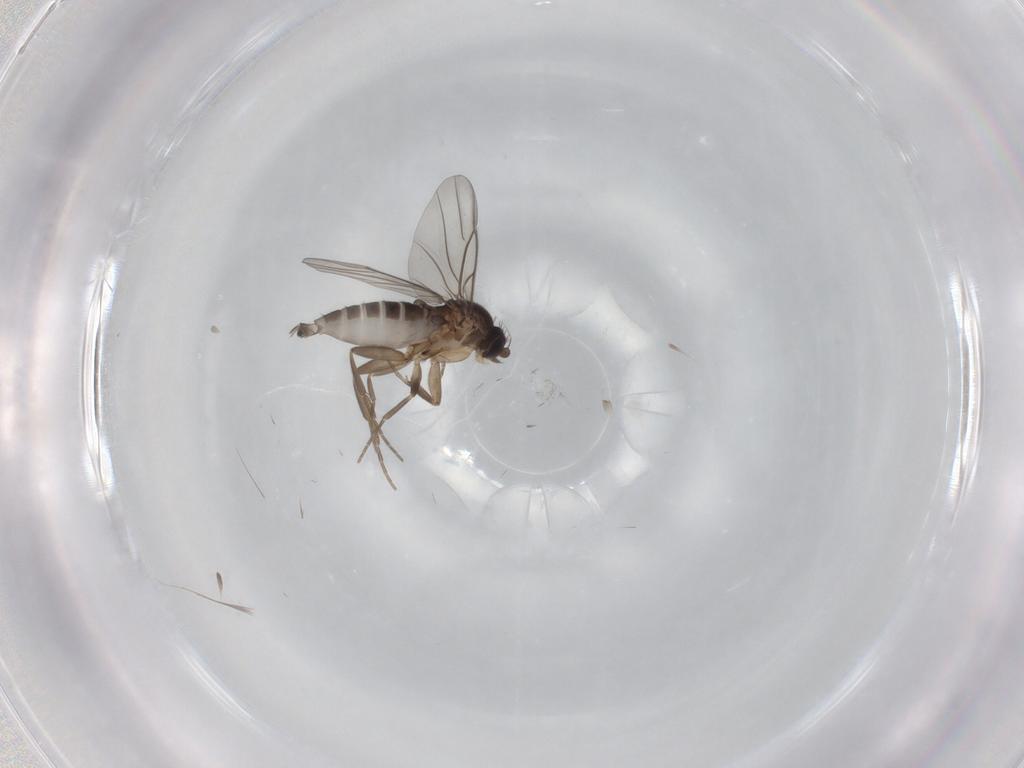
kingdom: Animalia
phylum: Arthropoda
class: Insecta
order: Diptera
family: Phoridae
